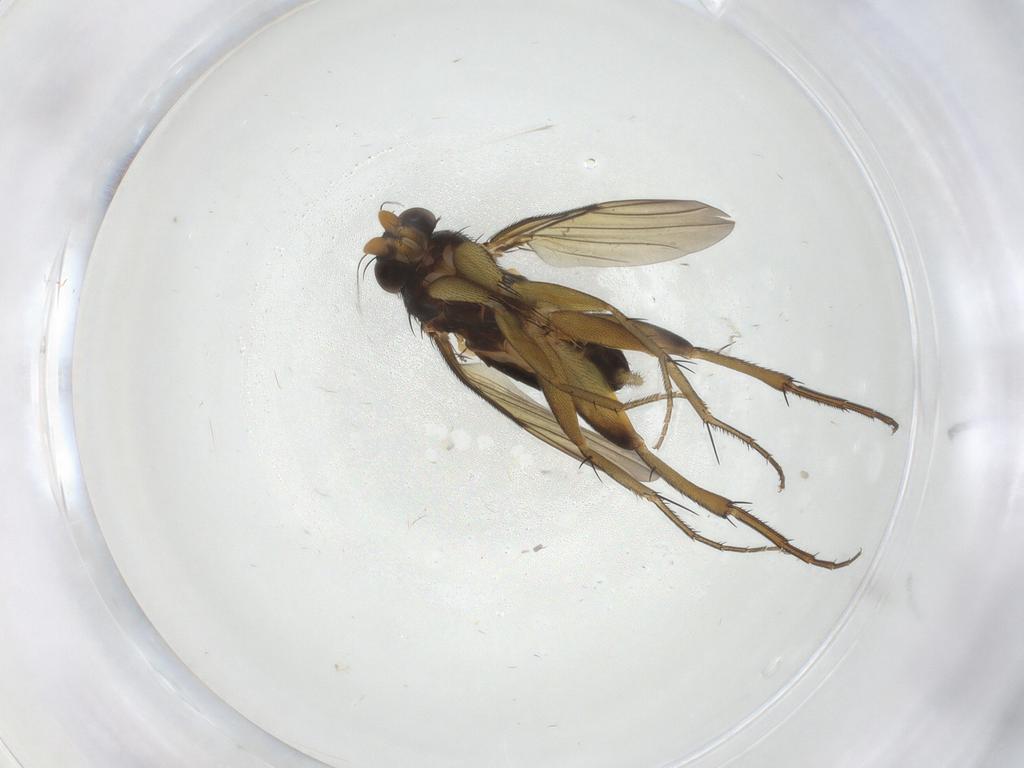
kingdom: Animalia
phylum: Arthropoda
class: Insecta
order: Diptera
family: Phoridae
